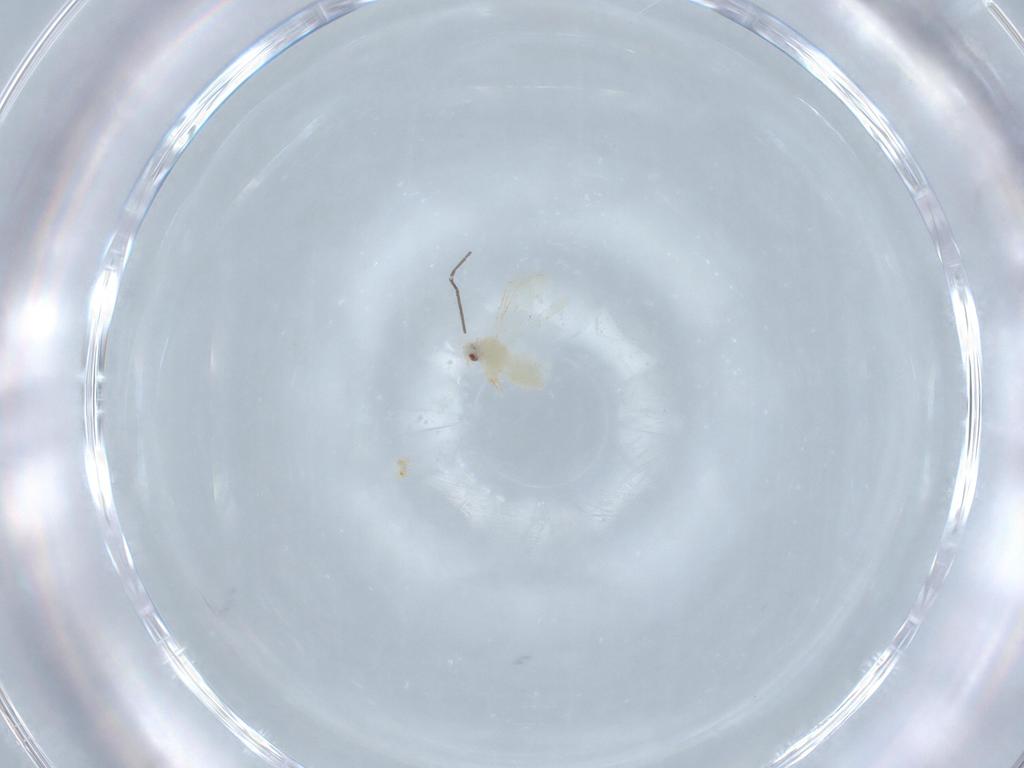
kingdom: Animalia
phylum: Arthropoda
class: Insecta
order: Hemiptera
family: Aleyrodidae
